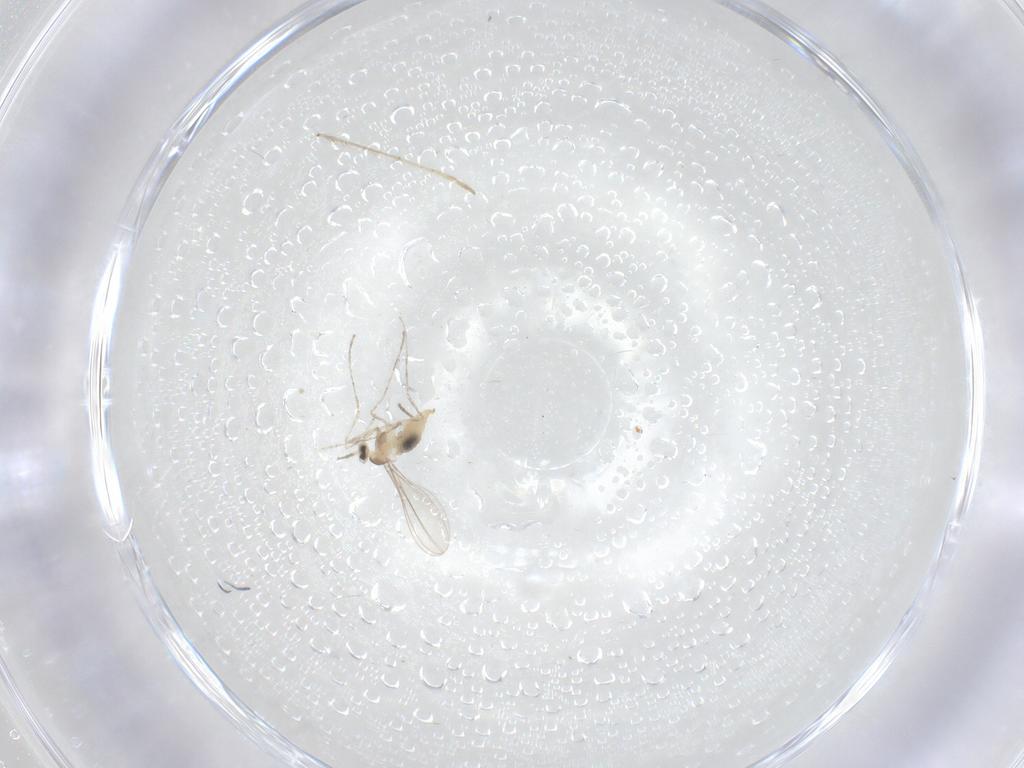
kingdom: Animalia
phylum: Arthropoda
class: Insecta
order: Diptera
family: Cecidomyiidae
